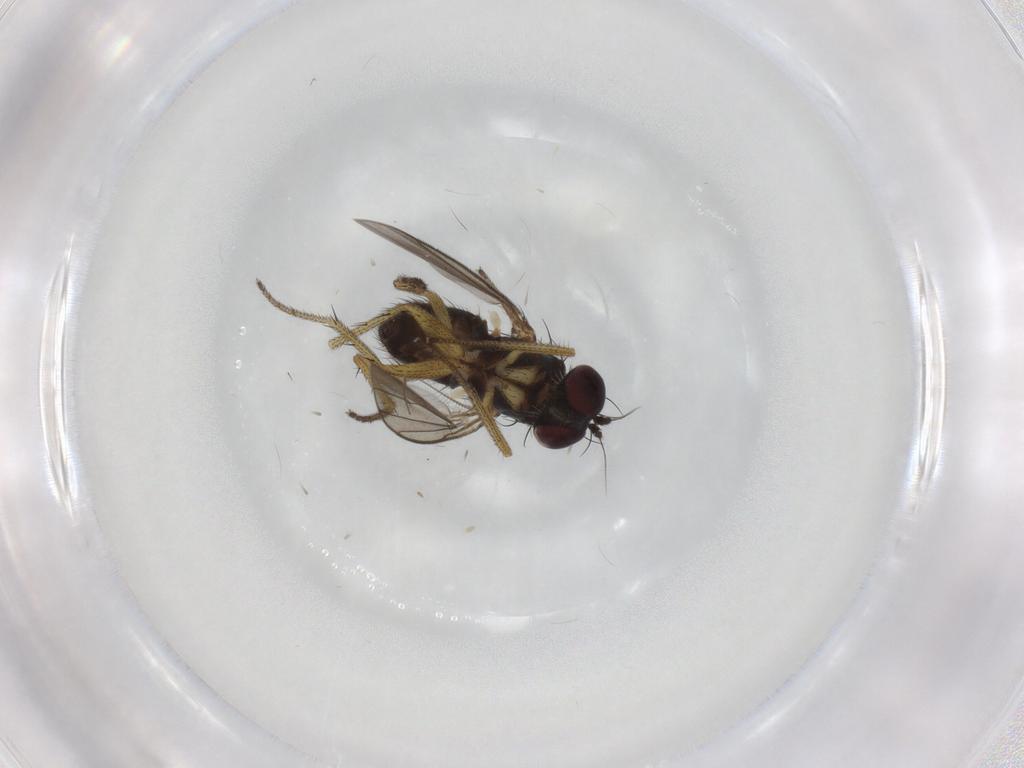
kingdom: Animalia
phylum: Arthropoda
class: Insecta
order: Diptera
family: Dolichopodidae
